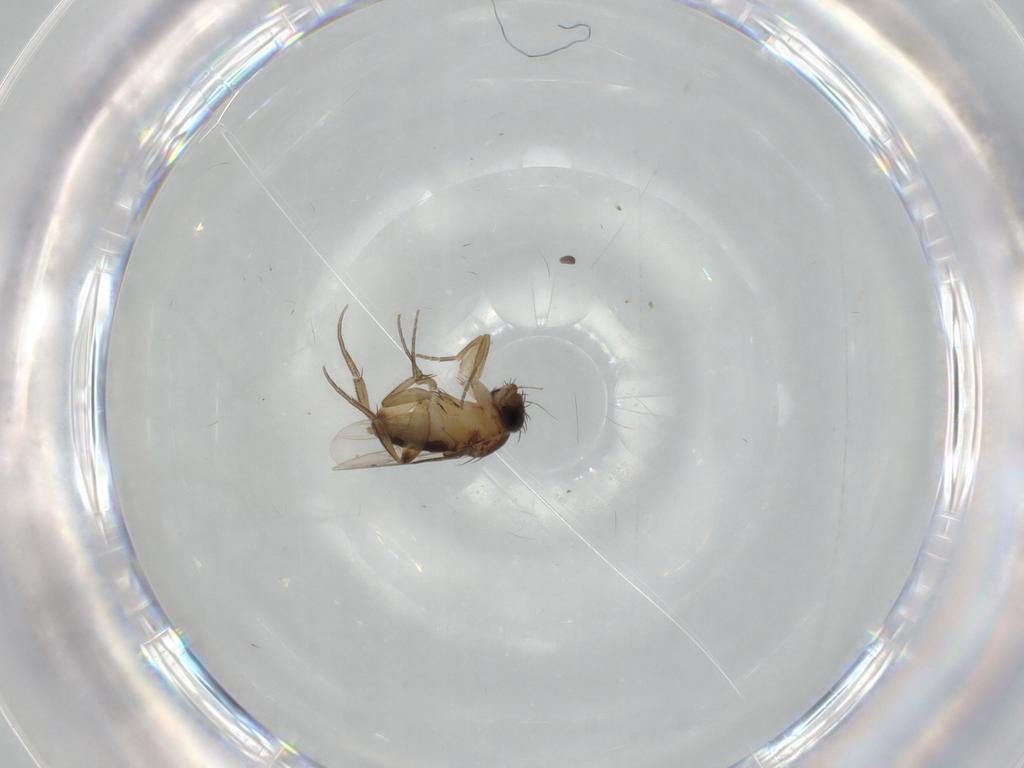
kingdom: Animalia
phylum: Arthropoda
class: Insecta
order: Diptera
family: Phoridae
